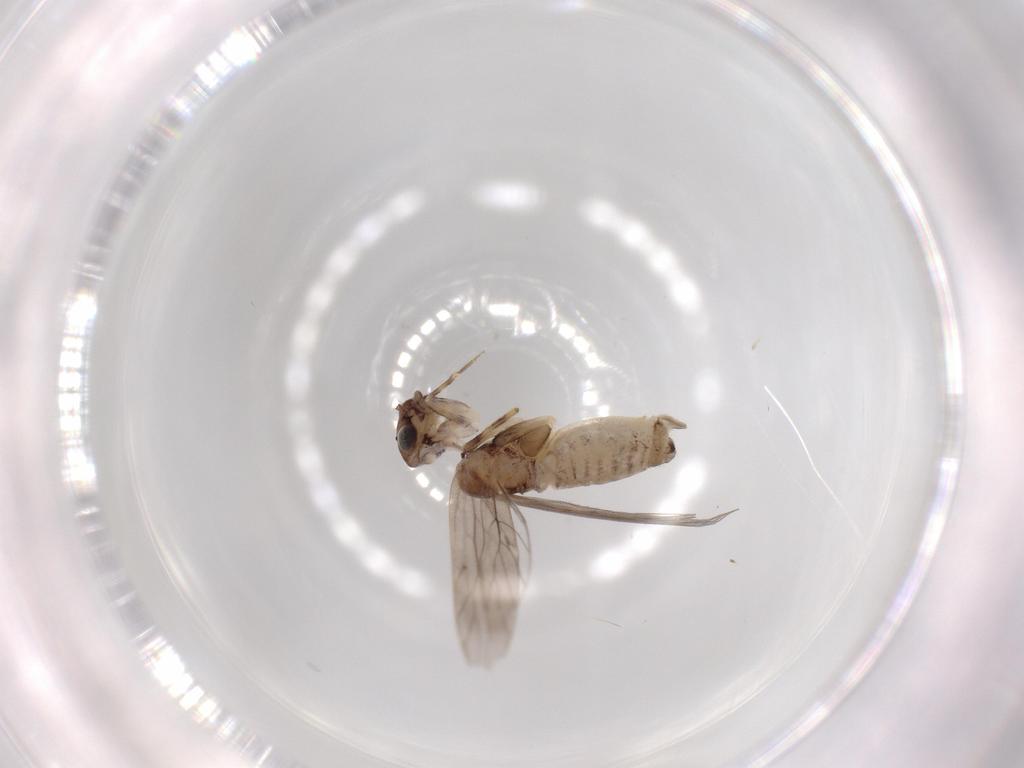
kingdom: Animalia
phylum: Arthropoda
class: Insecta
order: Psocodea
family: Lepidopsocidae
